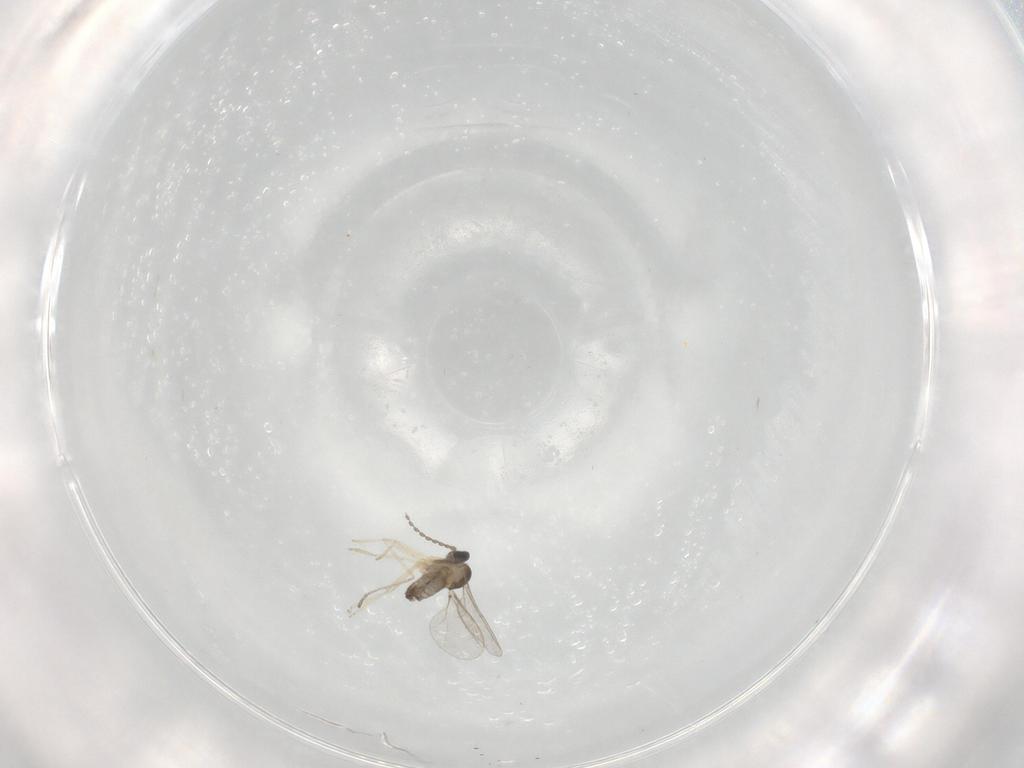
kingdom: Animalia
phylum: Arthropoda
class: Insecta
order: Diptera
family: Cecidomyiidae
